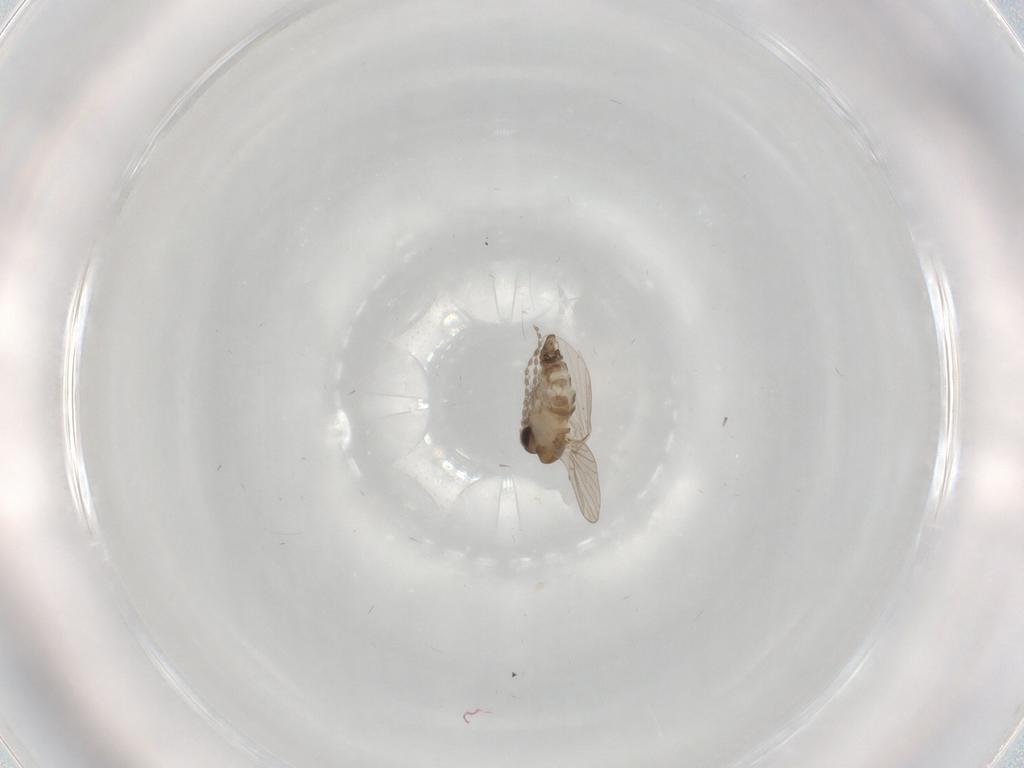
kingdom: Animalia
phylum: Arthropoda
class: Insecta
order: Diptera
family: Cecidomyiidae
